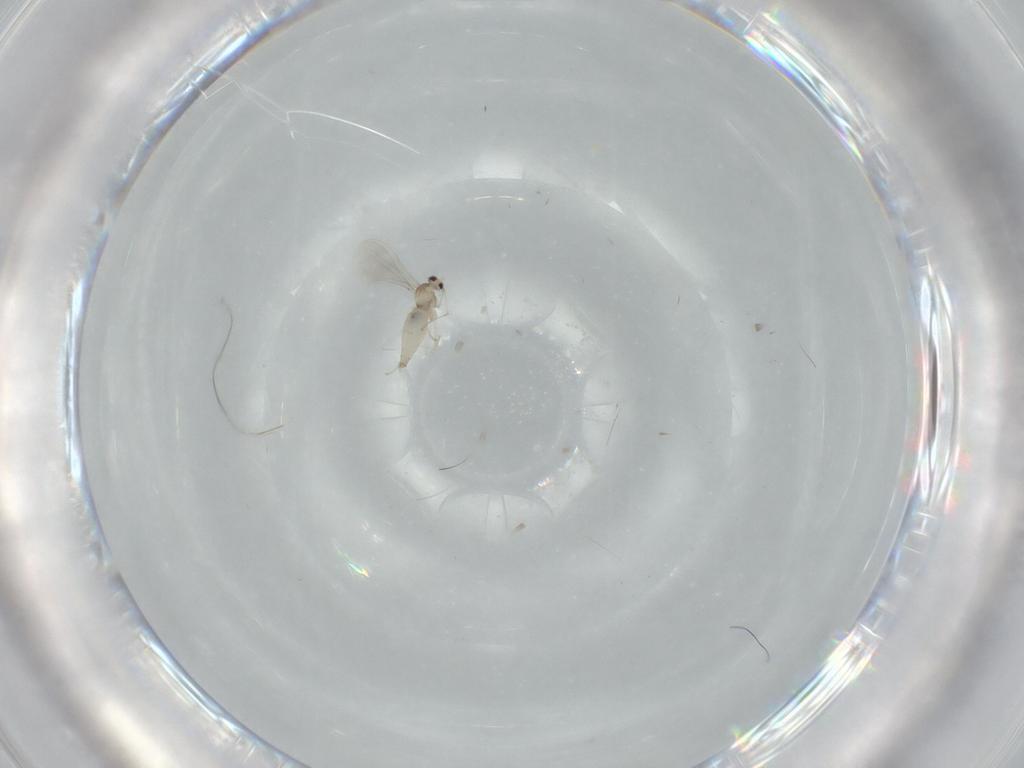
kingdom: Animalia
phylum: Arthropoda
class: Insecta
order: Diptera
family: Cecidomyiidae
